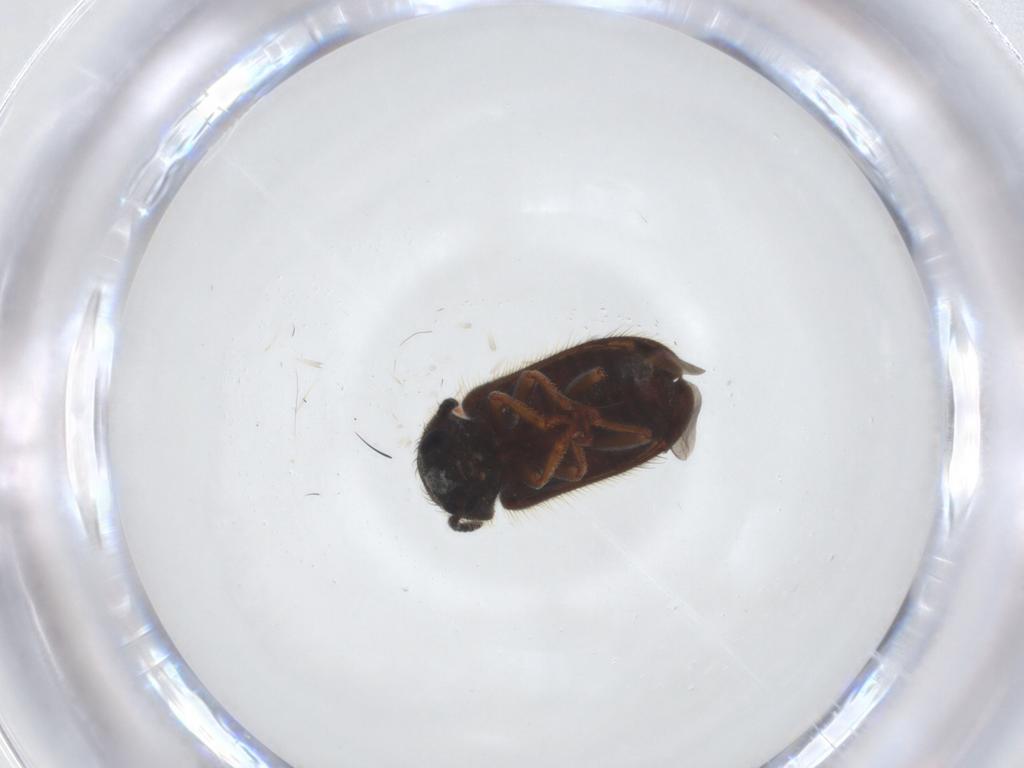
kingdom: Animalia
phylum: Arthropoda
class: Insecta
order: Coleoptera
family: Melyridae
